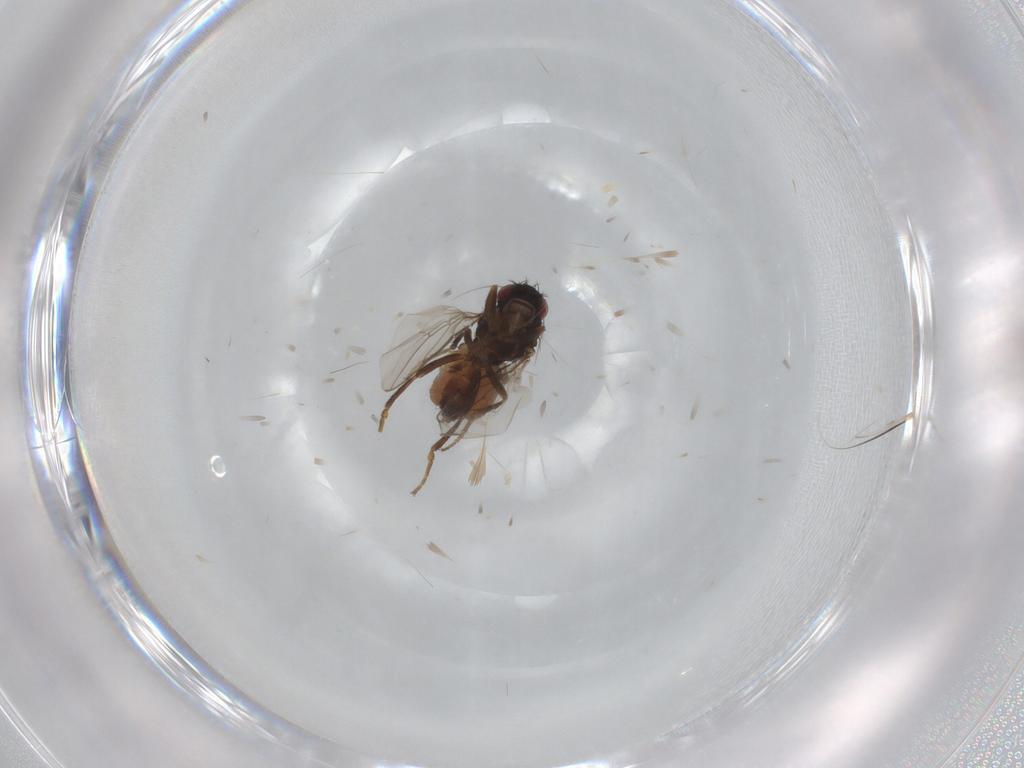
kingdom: Animalia
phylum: Arthropoda
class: Insecta
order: Diptera
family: Sphaeroceridae
